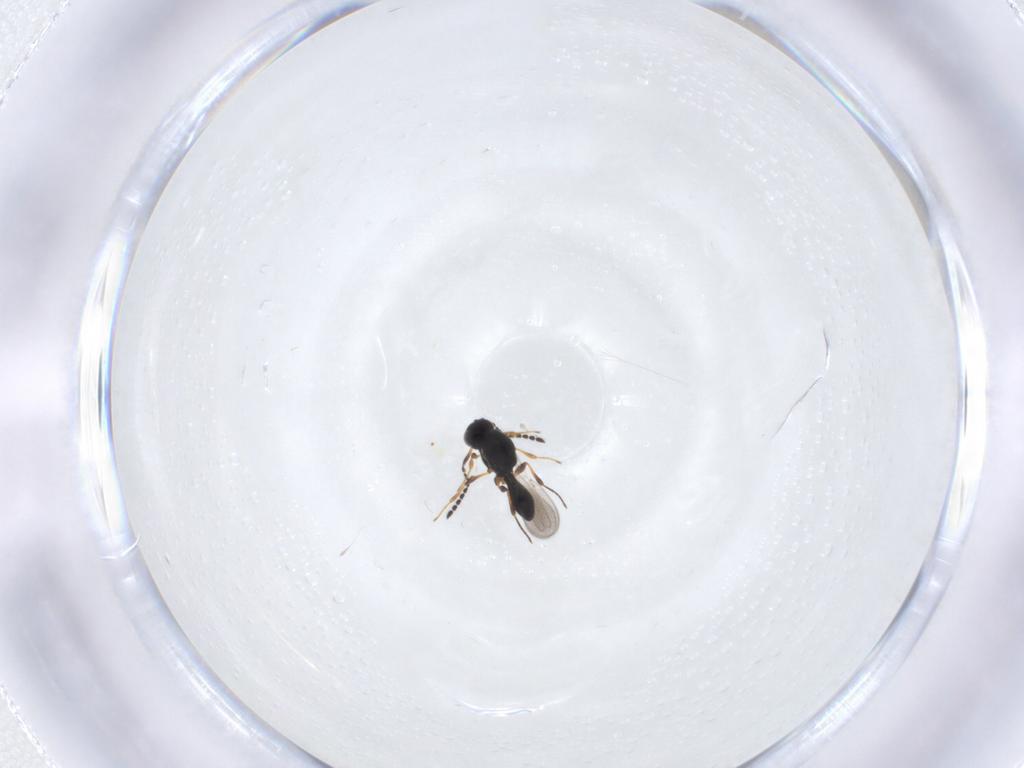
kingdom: Animalia
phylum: Arthropoda
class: Insecta
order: Hymenoptera
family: Platygastridae
